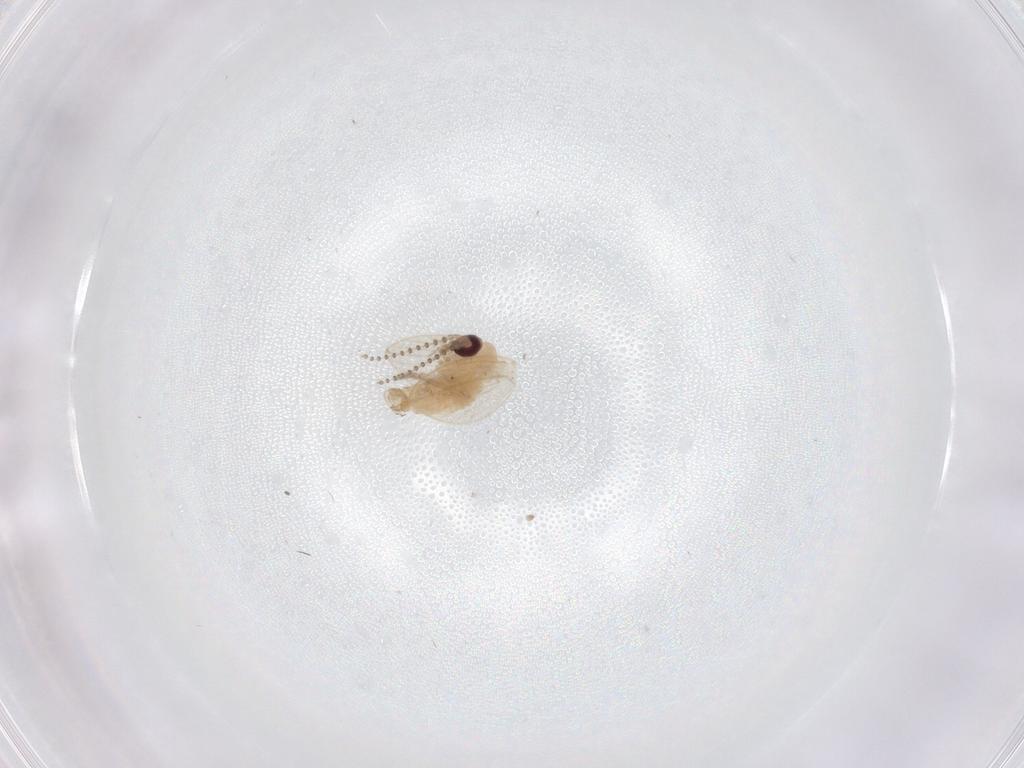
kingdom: Animalia
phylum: Arthropoda
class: Insecta
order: Diptera
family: Psychodidae
